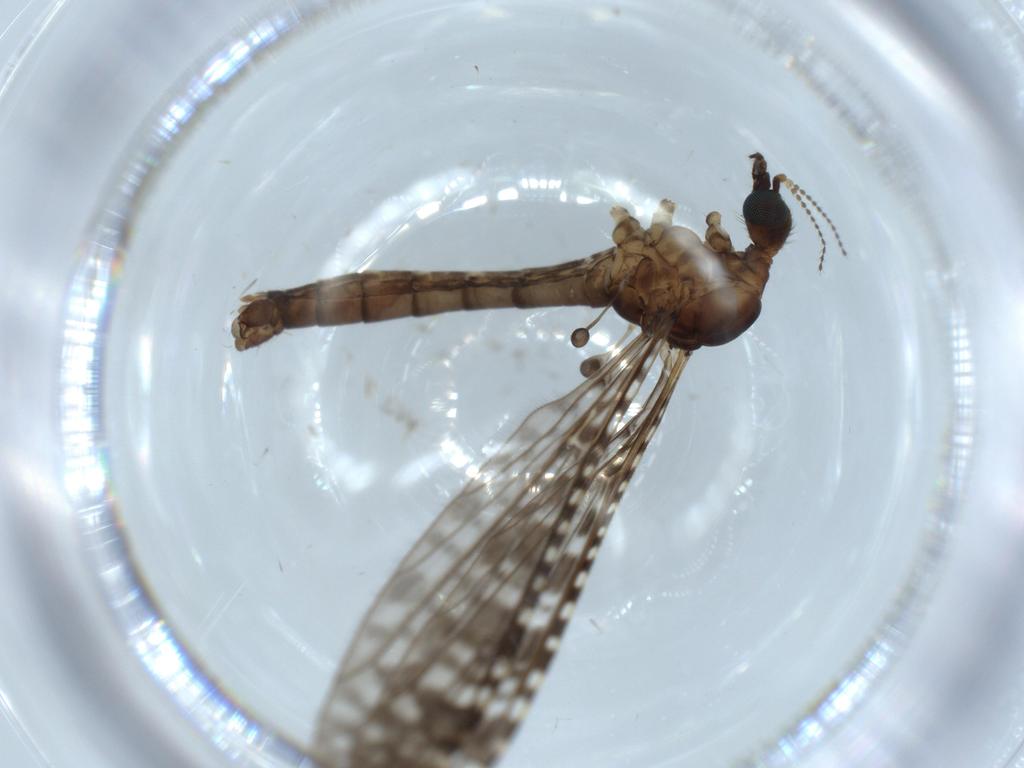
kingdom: Animalia
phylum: Arthropoda
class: Insecta
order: Diptera
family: Phoridae
